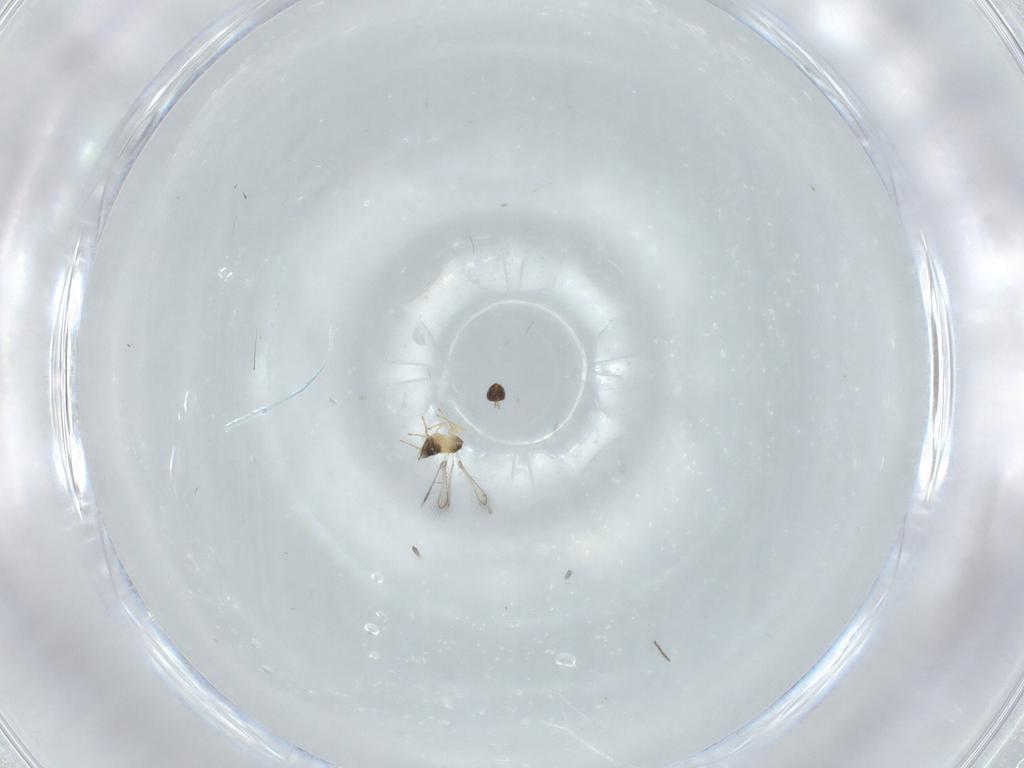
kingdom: Animalia
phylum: Arthropoda
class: Insecta
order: Hymenoptera
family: Mymaridae
